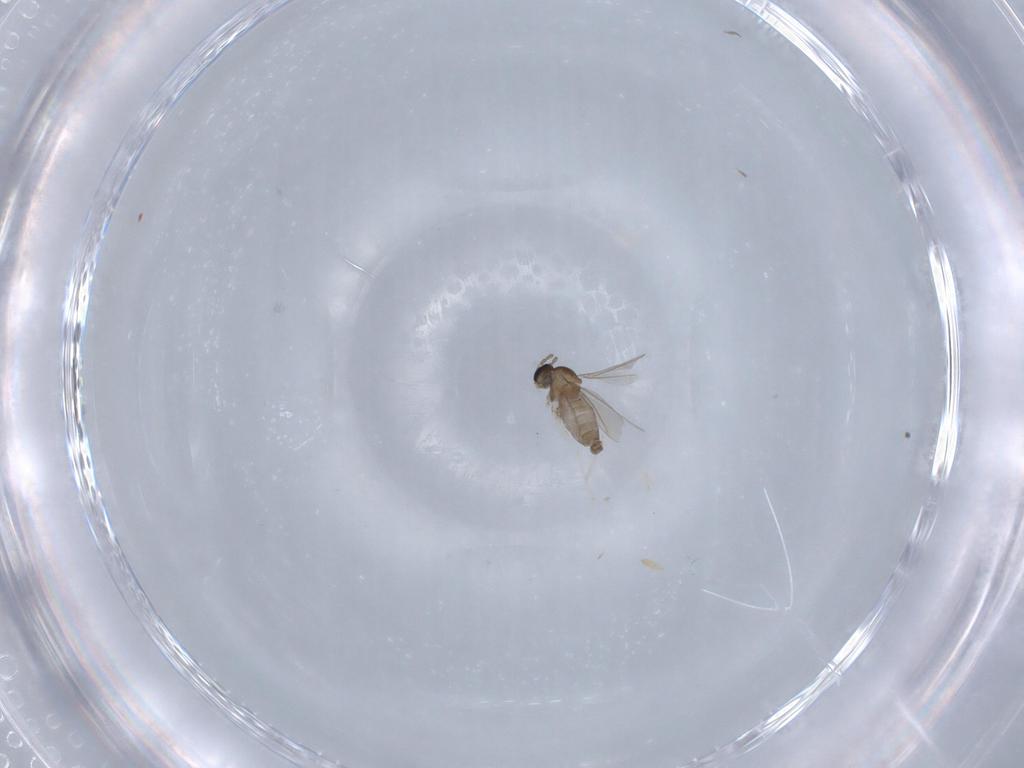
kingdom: Animalia
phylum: Arthropoda
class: Insecta
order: Diptera
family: Cecidomyiidae
